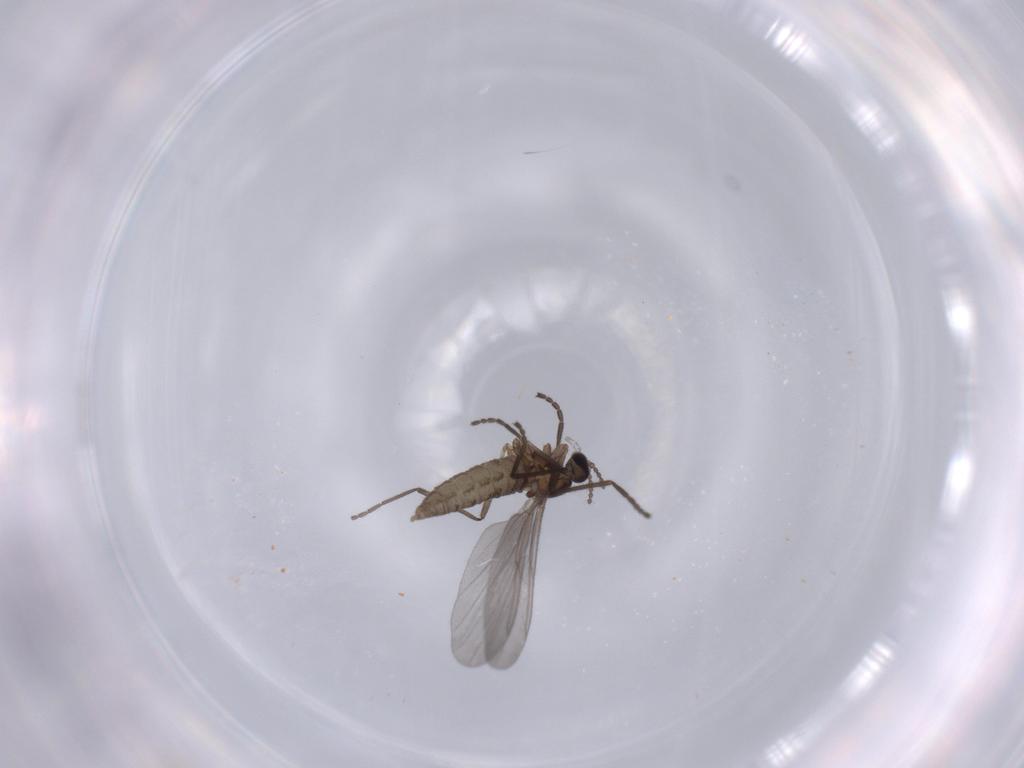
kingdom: Animalia
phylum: Arthropoda
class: Insecta
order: Diptera
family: Cecidomyiidae
